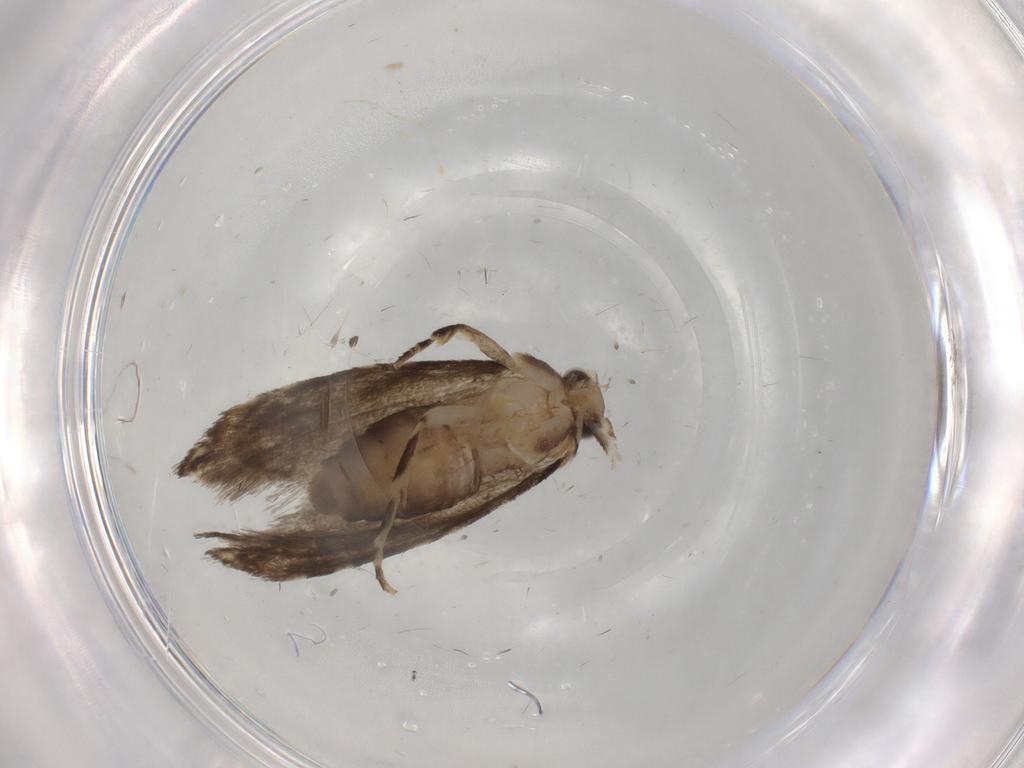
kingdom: Animalia
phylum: Arthropoda
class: Insecta
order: Lepidoptera
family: Tineidae
